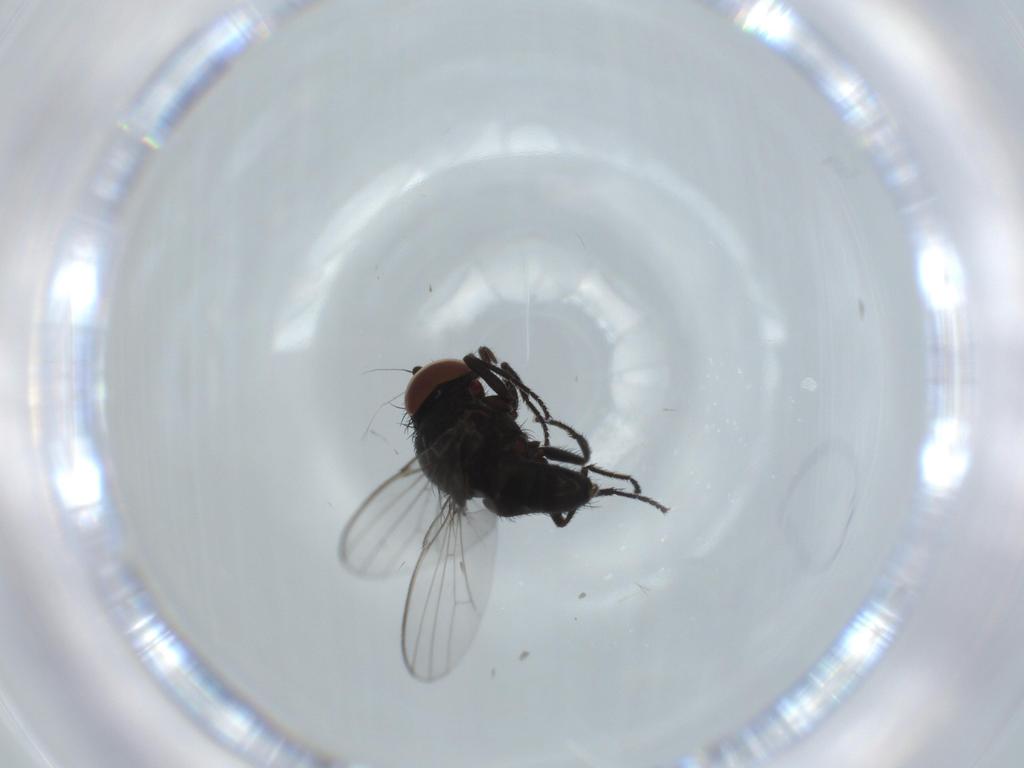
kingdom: Animalia
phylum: Arthropoda
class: Insecta
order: Diptera
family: Milichiidae
